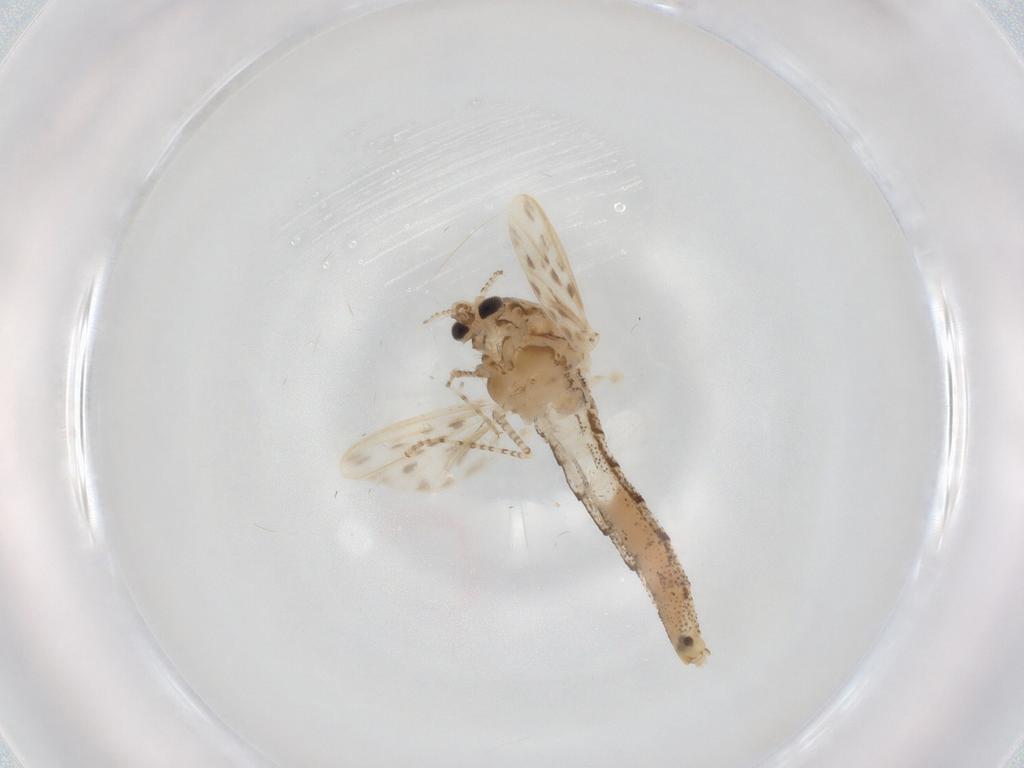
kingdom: Animalia
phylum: Arthropoda
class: Insecta
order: Diptera
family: Chaoboridae
